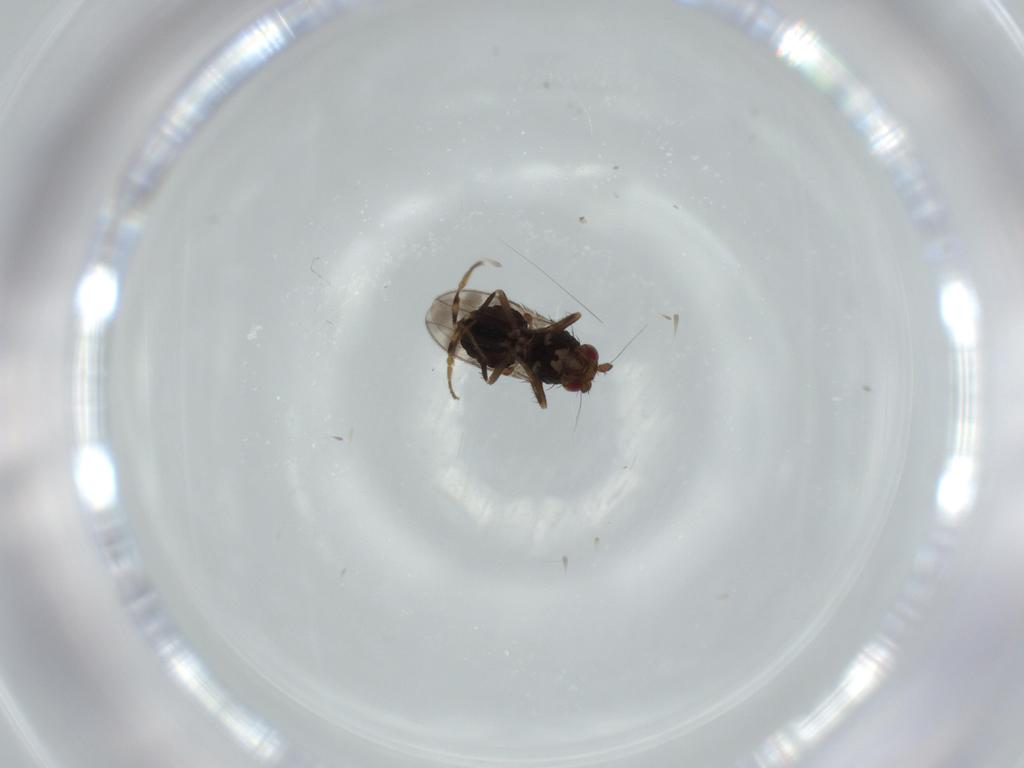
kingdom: Animalia
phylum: Arthropoda
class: Insecta
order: Diptera
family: Sphaeroceridae
